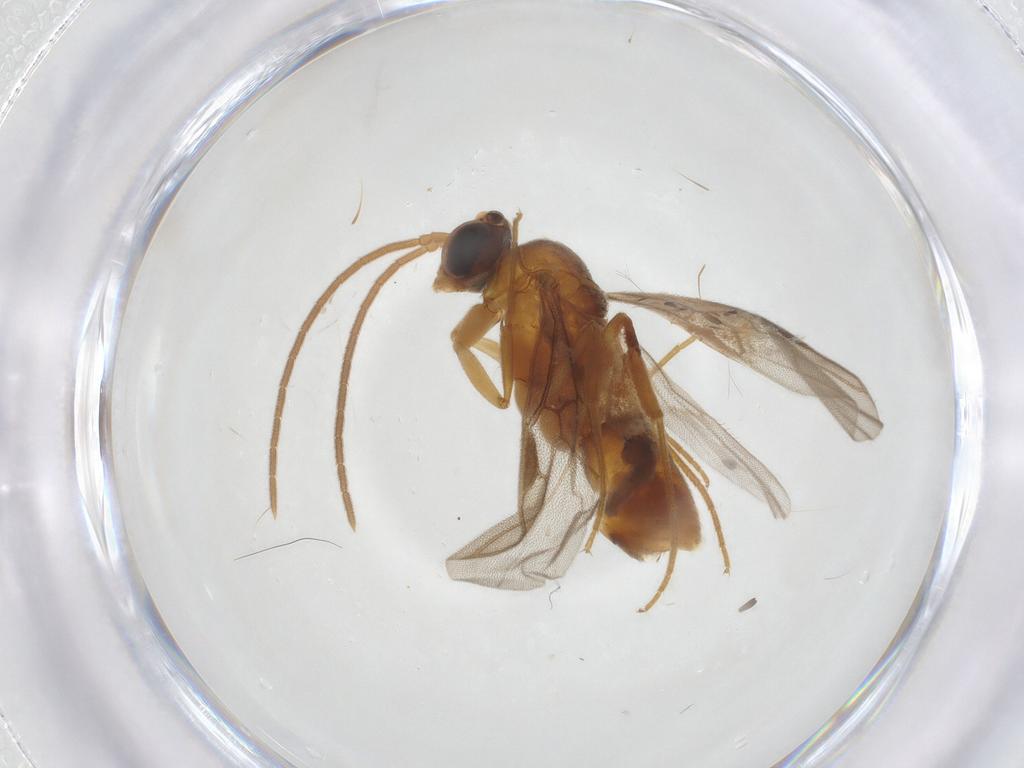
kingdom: Animalia
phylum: Arthropoda
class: Insecta
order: Hymenoptera
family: Formicidae
